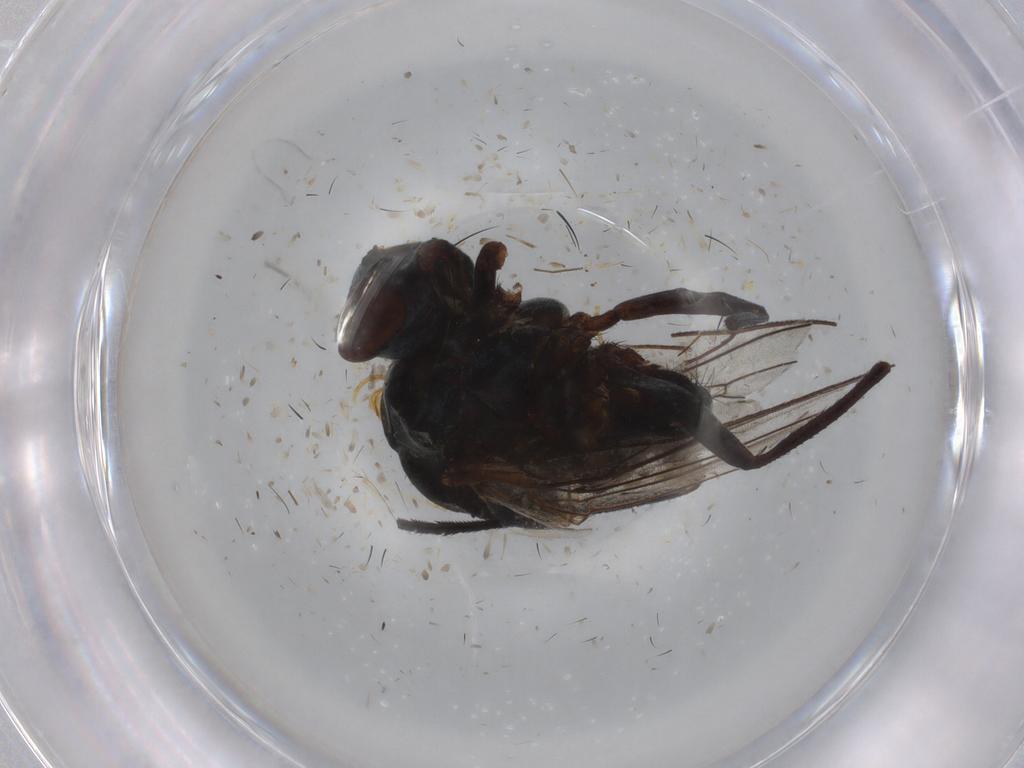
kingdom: Animalia
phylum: Arthropoda
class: Insecta
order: Diptera
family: Anthomyiidae
